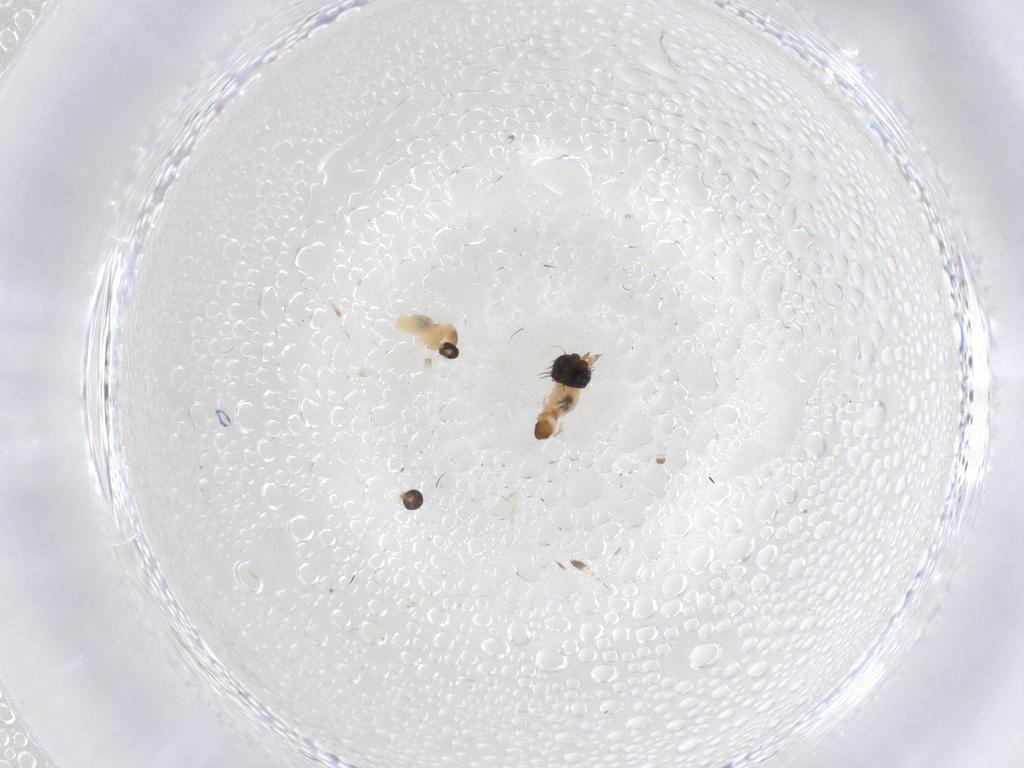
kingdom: Animalia
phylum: Arthropoda
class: Insecta
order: Diptera
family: Cecidomyiidae
